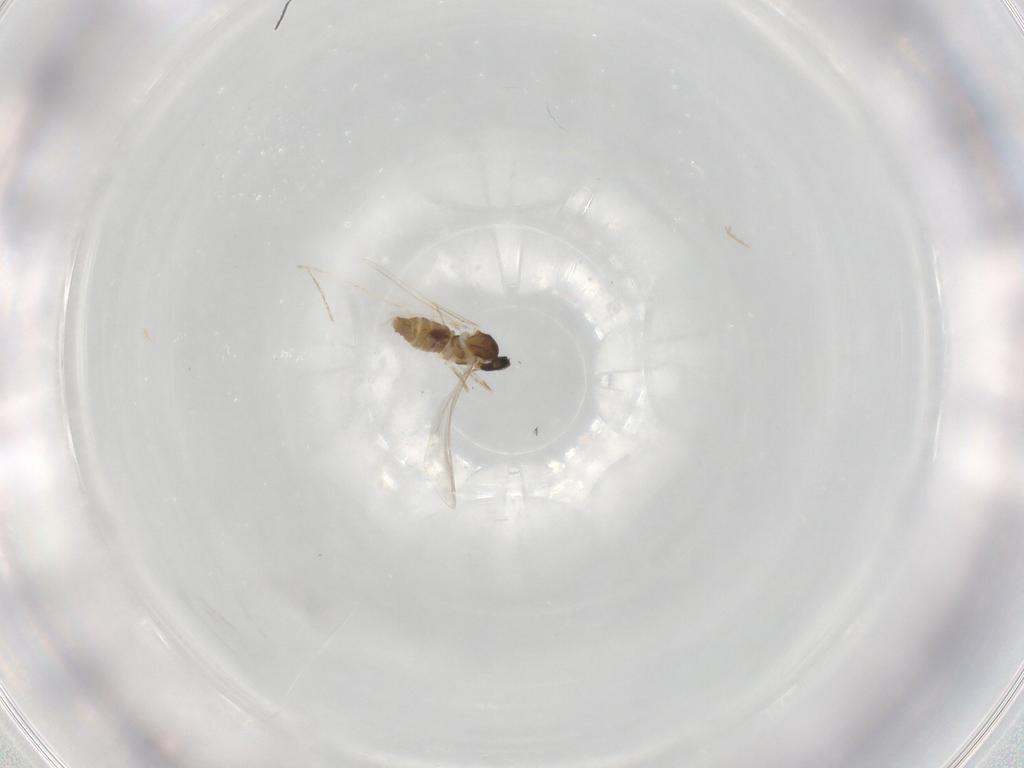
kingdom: Animalia
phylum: Arthropoda
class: Insecta
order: Diptera
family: Cecidomyiidae
